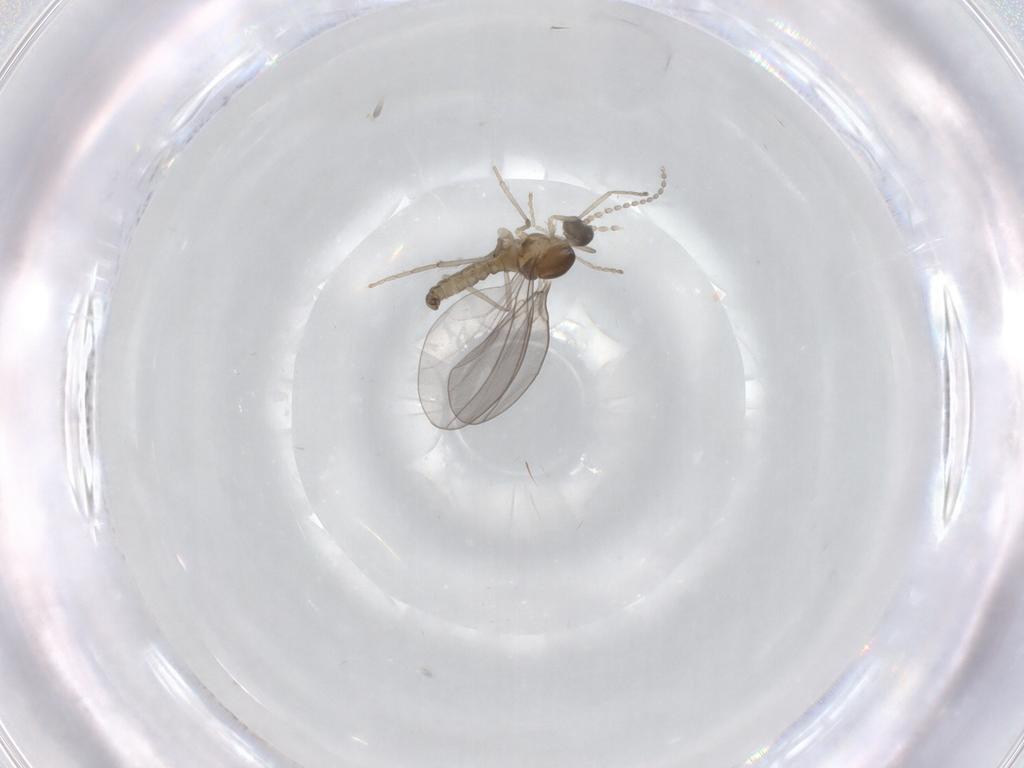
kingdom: Animalia
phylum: Arthropoda
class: Insecta
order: Diptera
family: Cecidomyiidae
